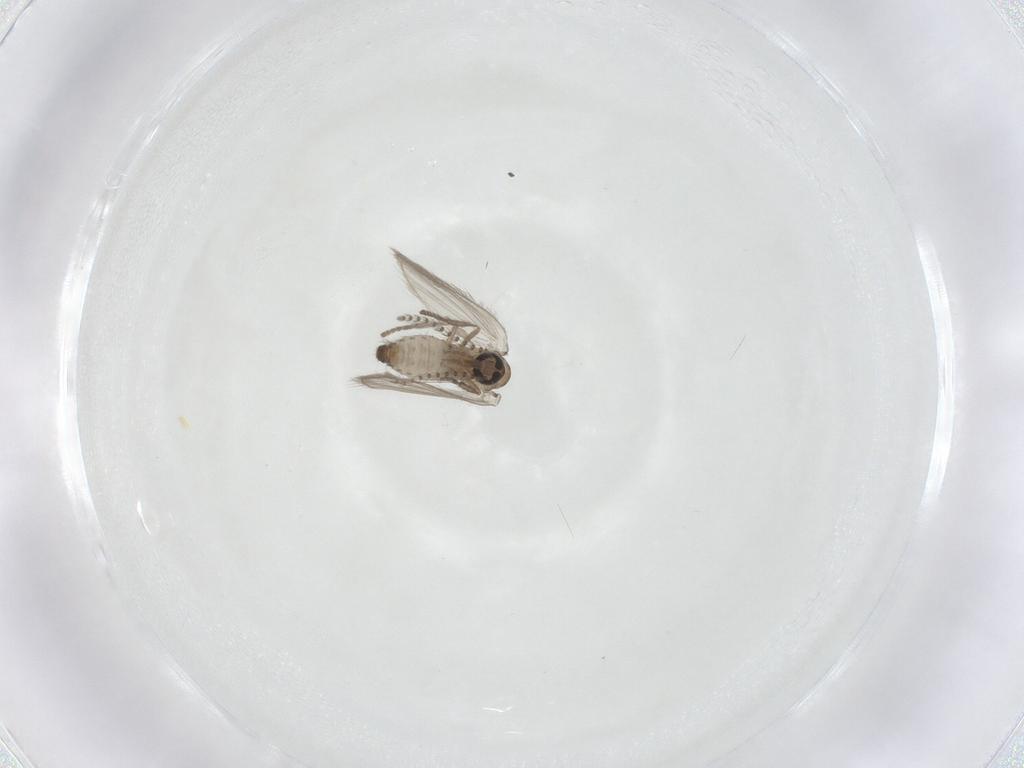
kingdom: Animalia
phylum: Arthropoda
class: Insecta
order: Diptera
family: Psychodidae
